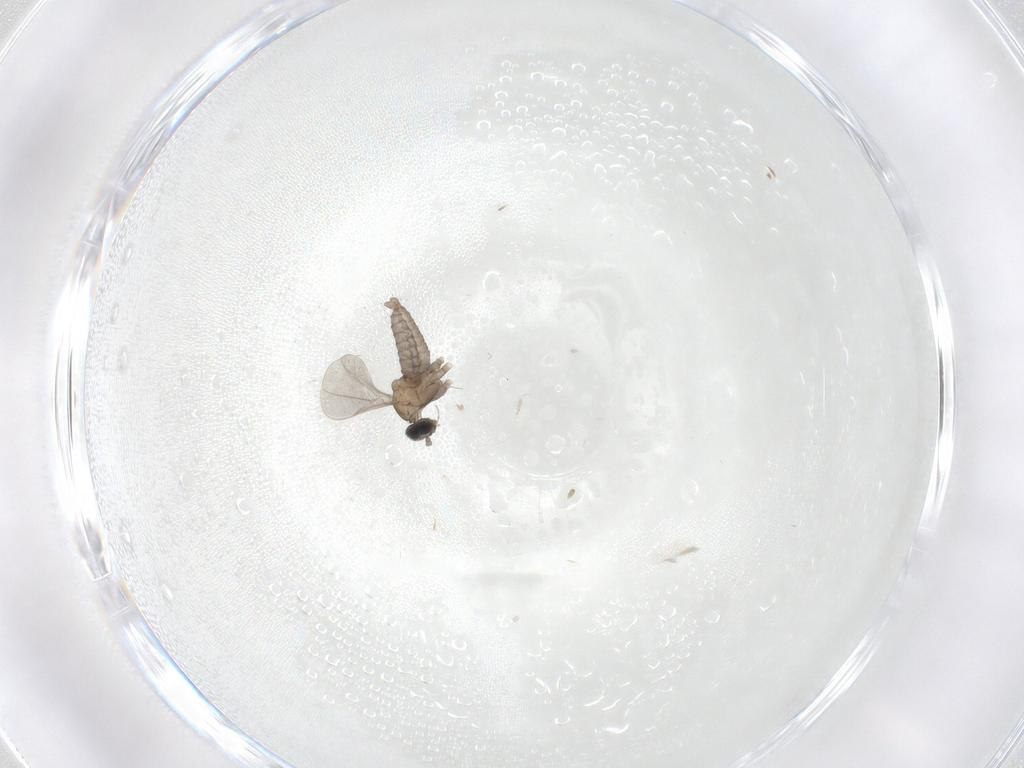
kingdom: Animalia
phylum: Arthropoda
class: Insecta
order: Diptera
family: Cecidomyiidae
